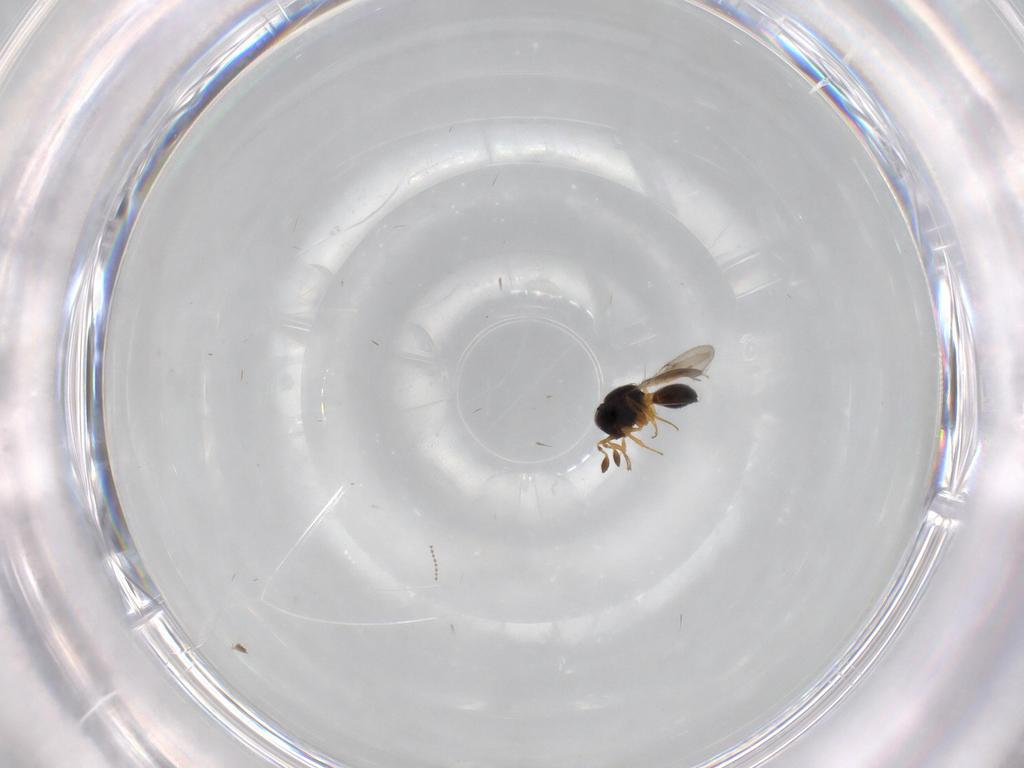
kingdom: Animalia
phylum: Arthropoda
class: Insecta
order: Hymenoptera
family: Scelionidae
